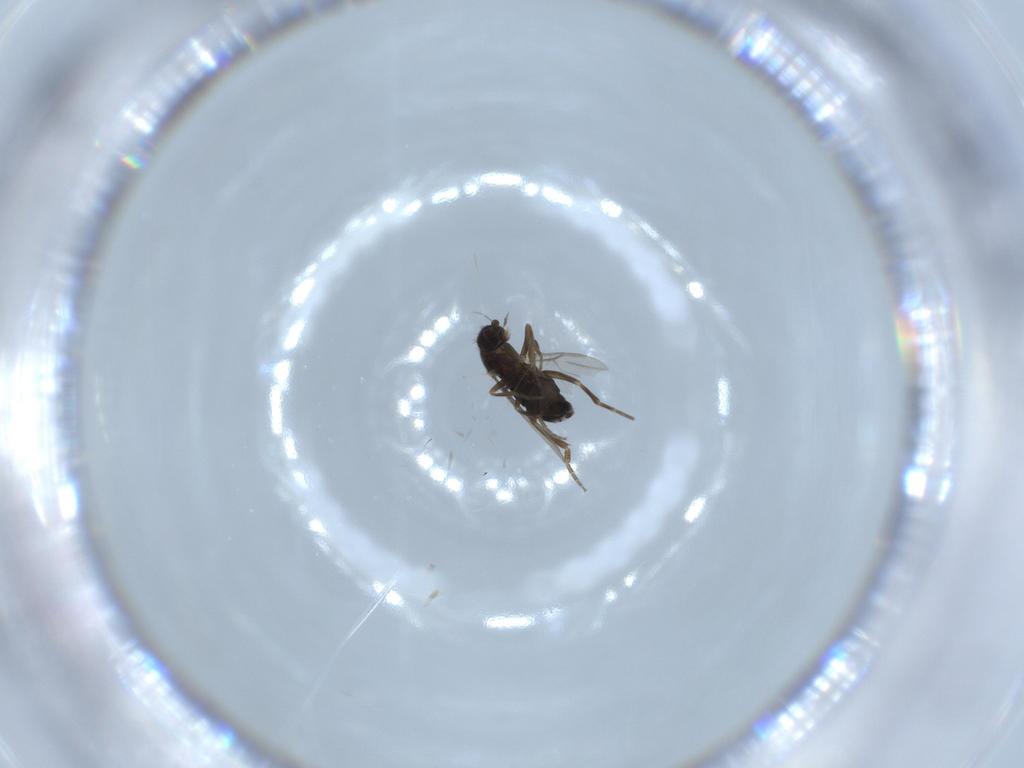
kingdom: Animalia
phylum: Arthropoda
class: Insecta
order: Diptera
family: Phoridae
